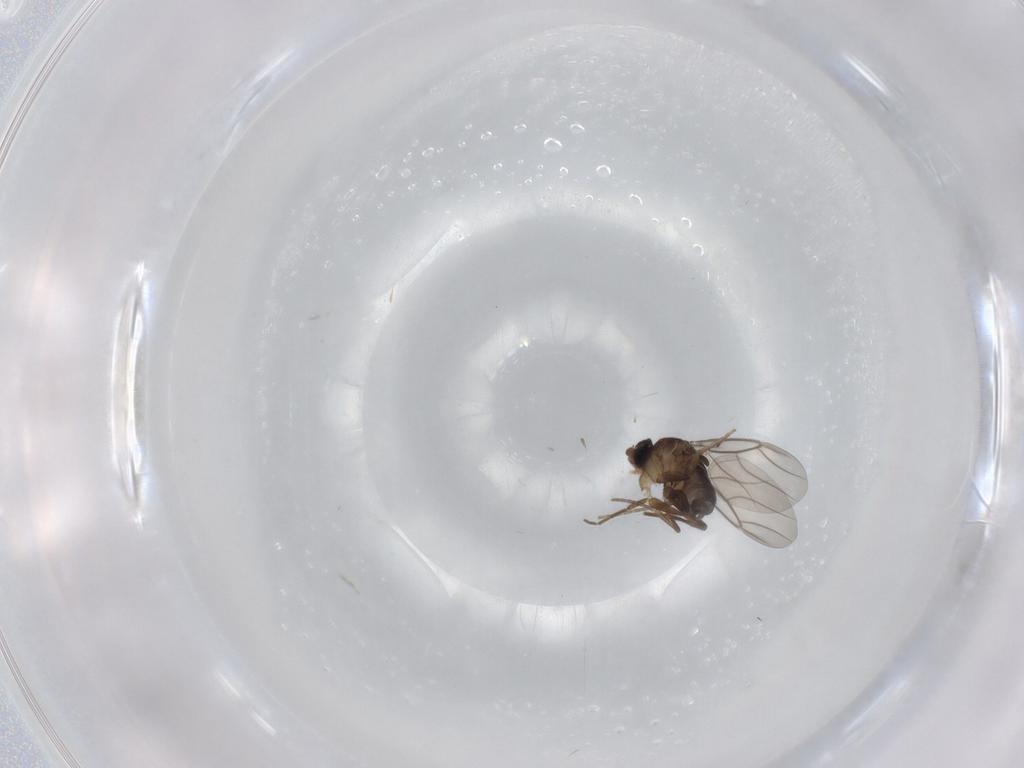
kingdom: Animalia
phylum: Arthropoda
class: Insecta
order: Diptera
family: Phoridae
